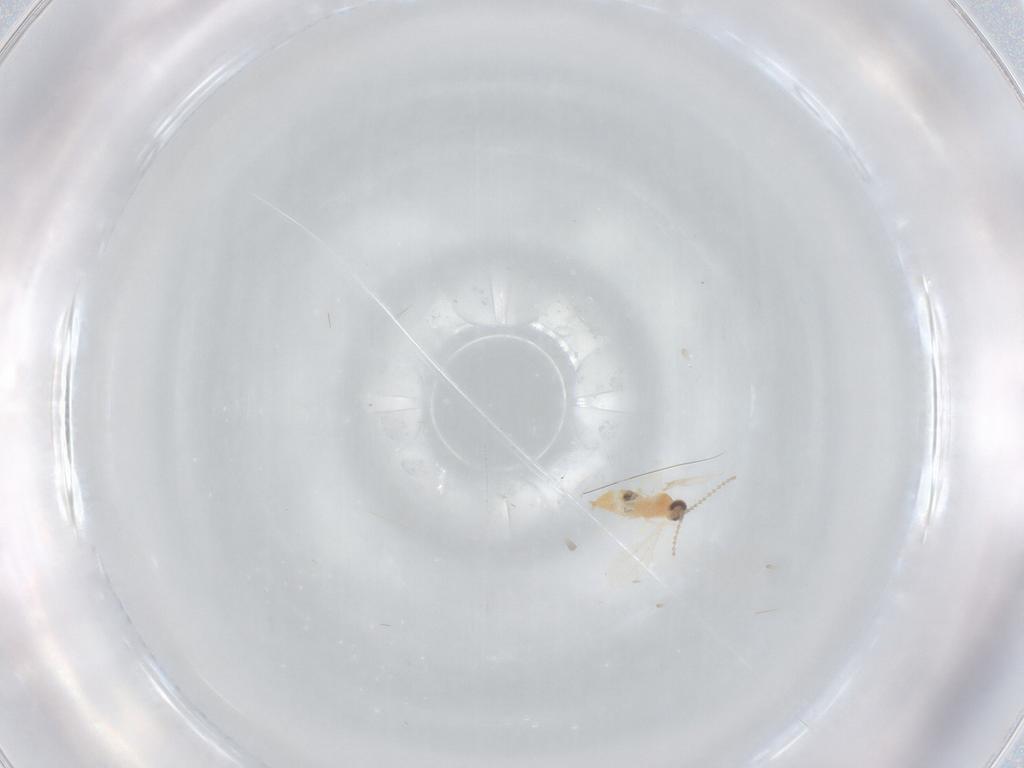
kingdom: Animalia
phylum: Arthropoda
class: Insecta
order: Diptera
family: Cecidomyiidae
